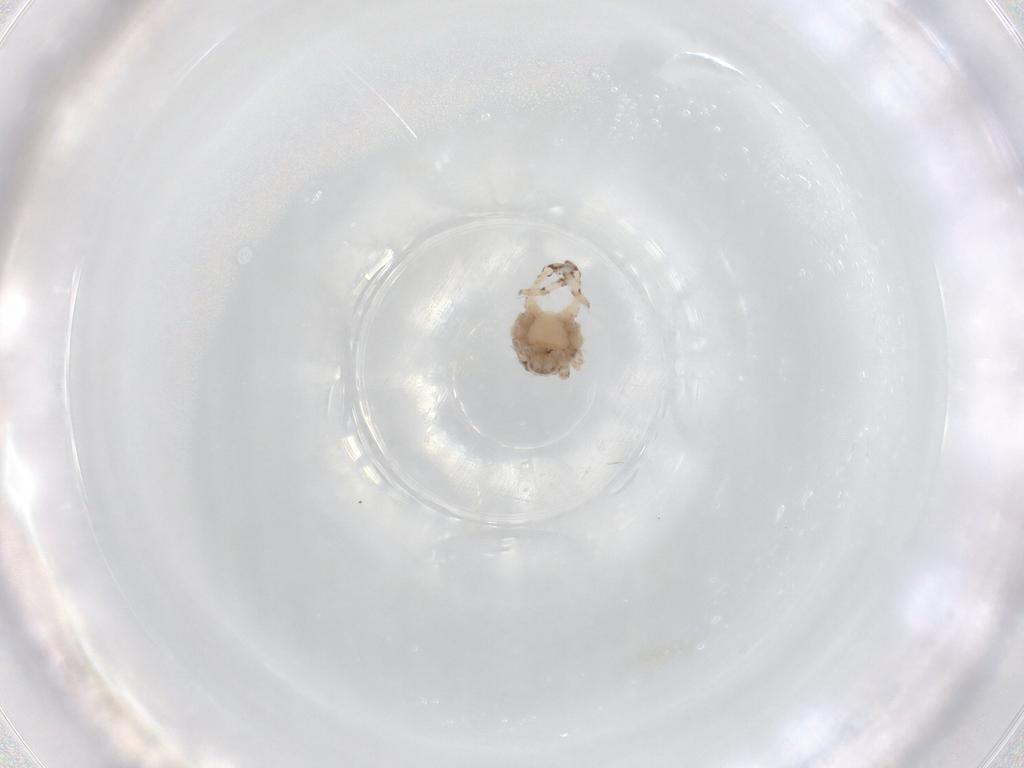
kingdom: Animalia
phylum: Arthropoda
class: Arachnida
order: Araneae
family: Philodromidae
